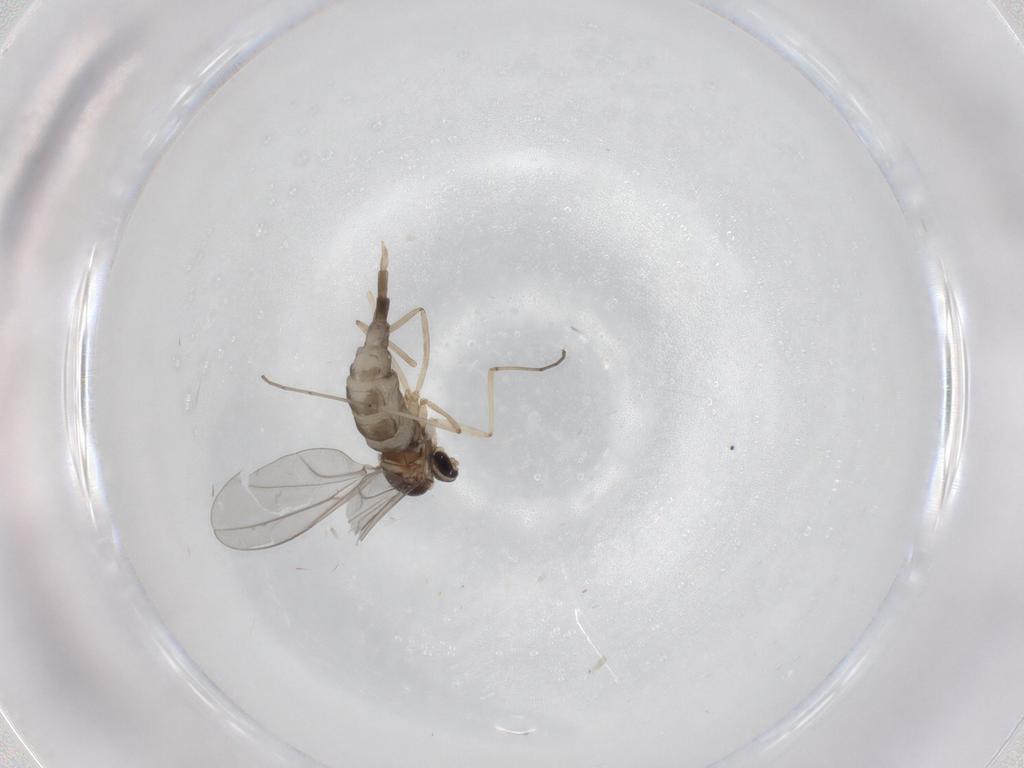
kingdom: Animalia
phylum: Arthropoda
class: Insecta
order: Diptera
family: Cecidomyiidae
